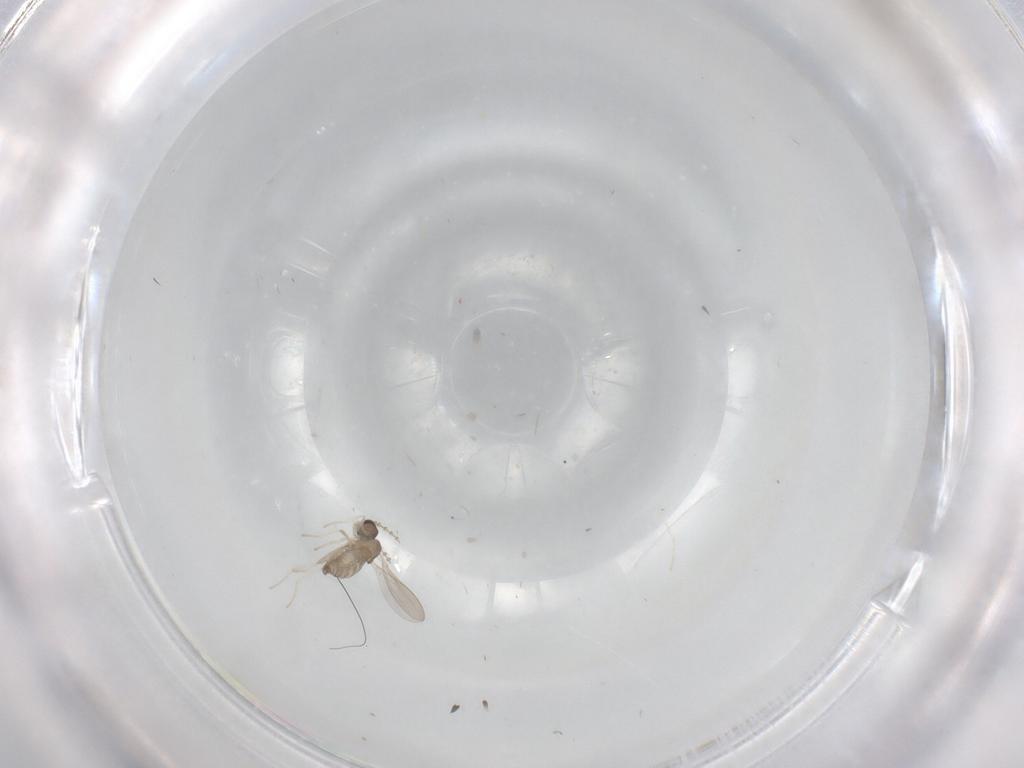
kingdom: Animalia
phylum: Arthropoda
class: Insecta
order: Diptera
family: Cecidomyiidae
